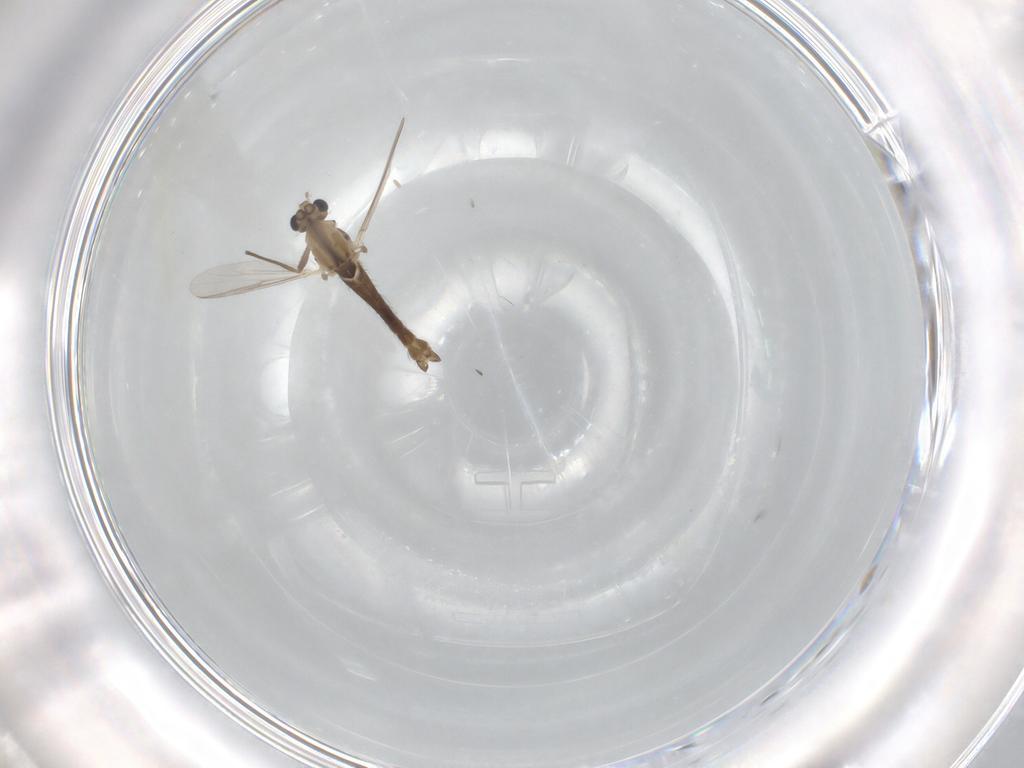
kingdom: Animalia
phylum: Arthropoda
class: Insecta
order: Diptera
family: Chironomidae
